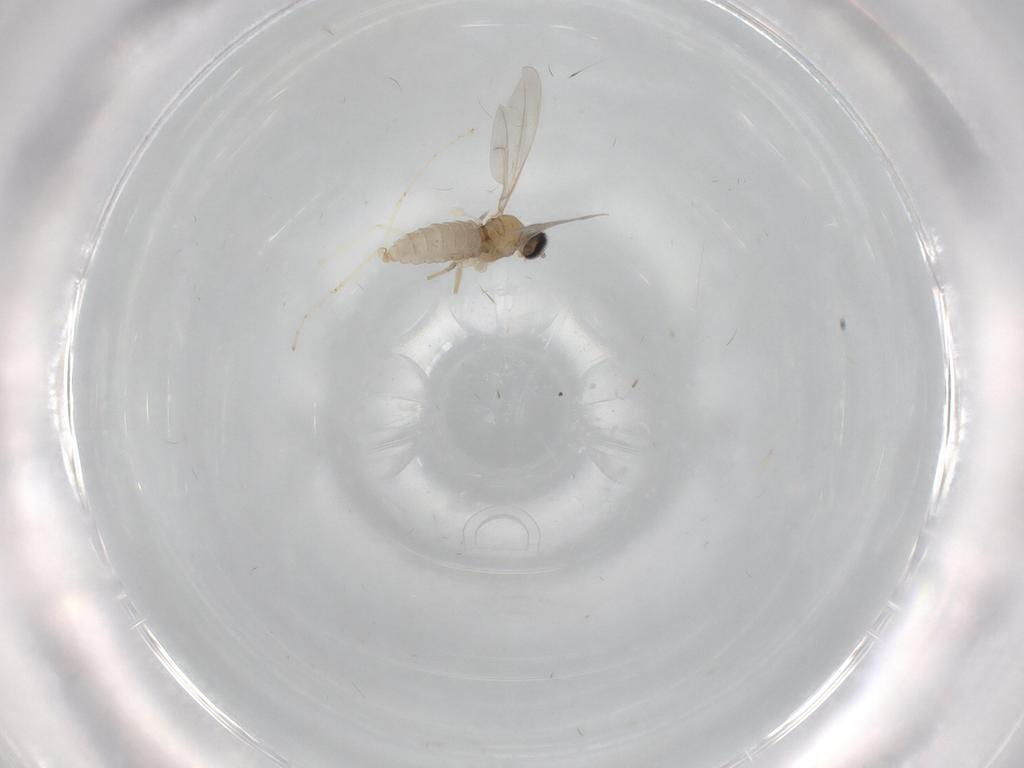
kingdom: Animalia
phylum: Arthropoda
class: Insecta
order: Diptera
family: Cecidomyiidae
